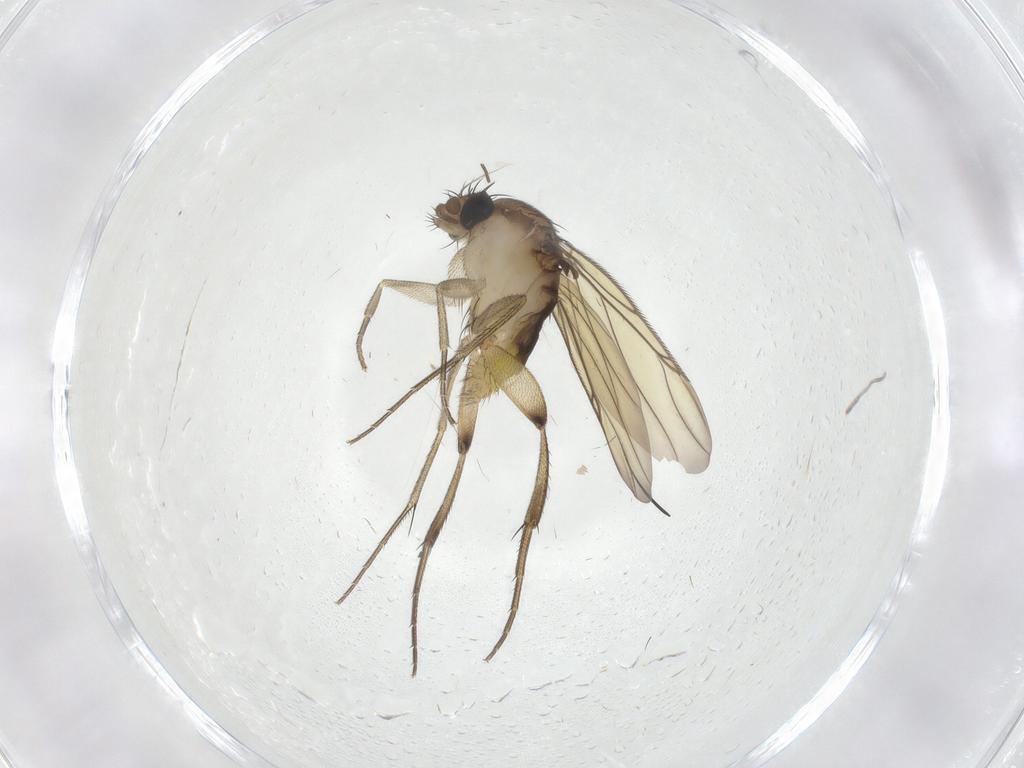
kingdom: Animalia
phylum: Arthropoda
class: Insecta
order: Diptera
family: Phoridae
